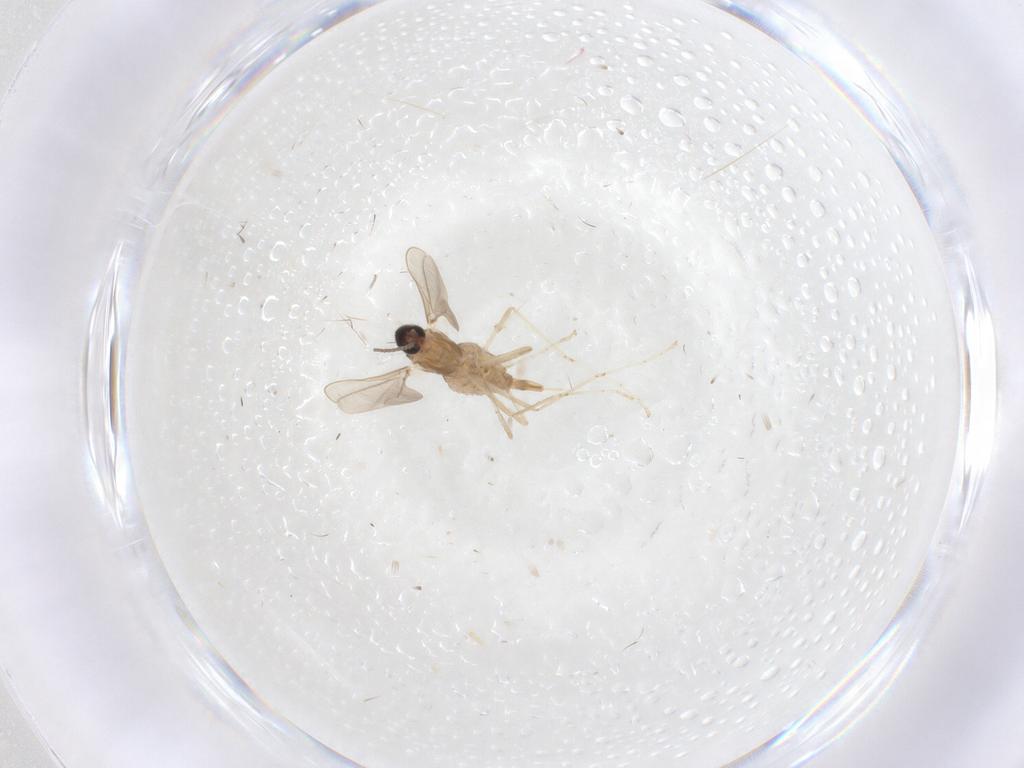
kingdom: Animalia
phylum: Arthropoda
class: Insecta
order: Diptera
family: Cecidomyiidae
